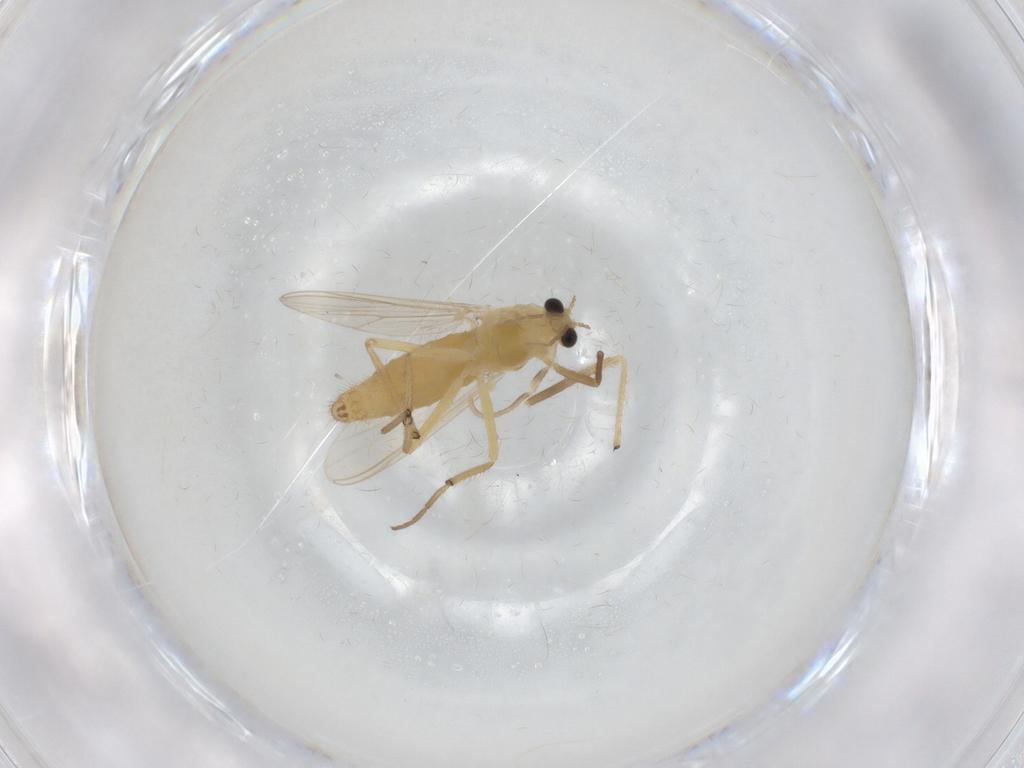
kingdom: Animalia
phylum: Arthropoda
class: Insecta
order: Diptera
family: Chironomidae
